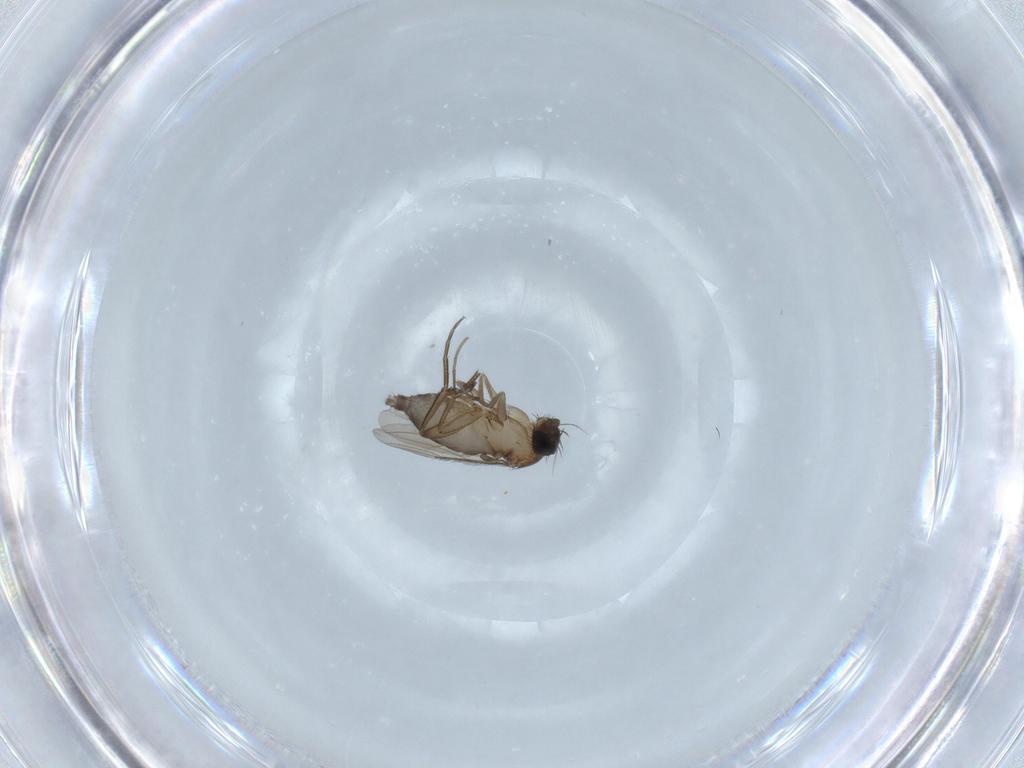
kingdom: Animalia
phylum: Arthropoda
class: Insecta
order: Diptera
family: Phoridae
